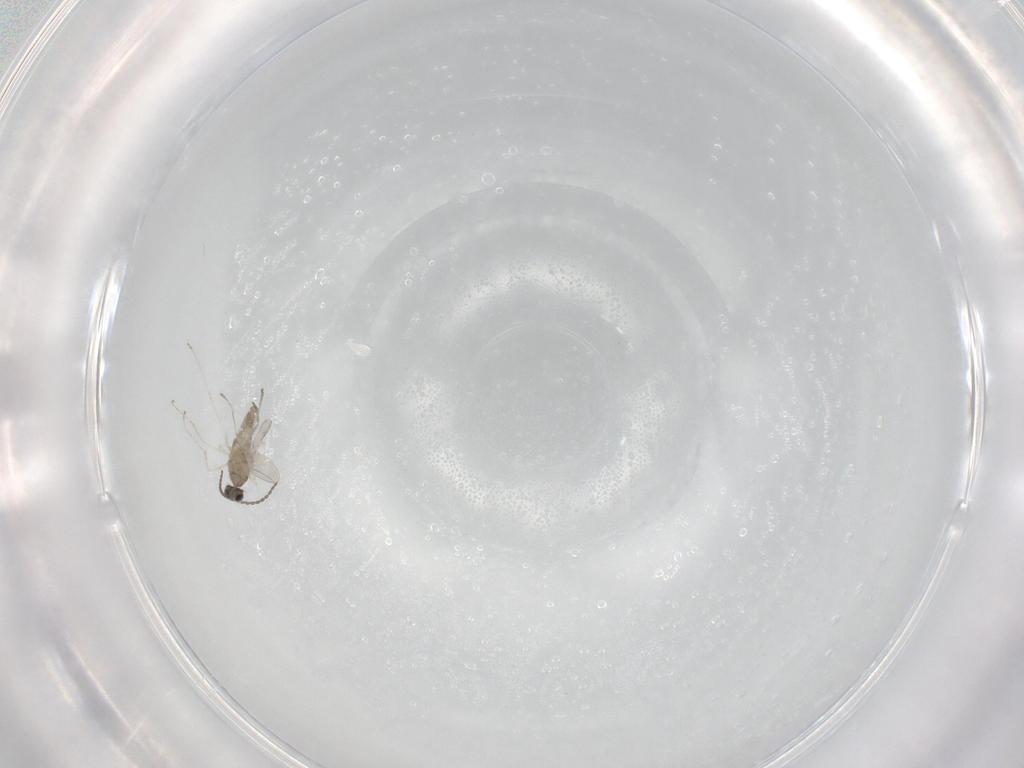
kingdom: Animalia
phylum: Arthropoda
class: Insecta
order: Diptera
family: Cecidomyiidae
